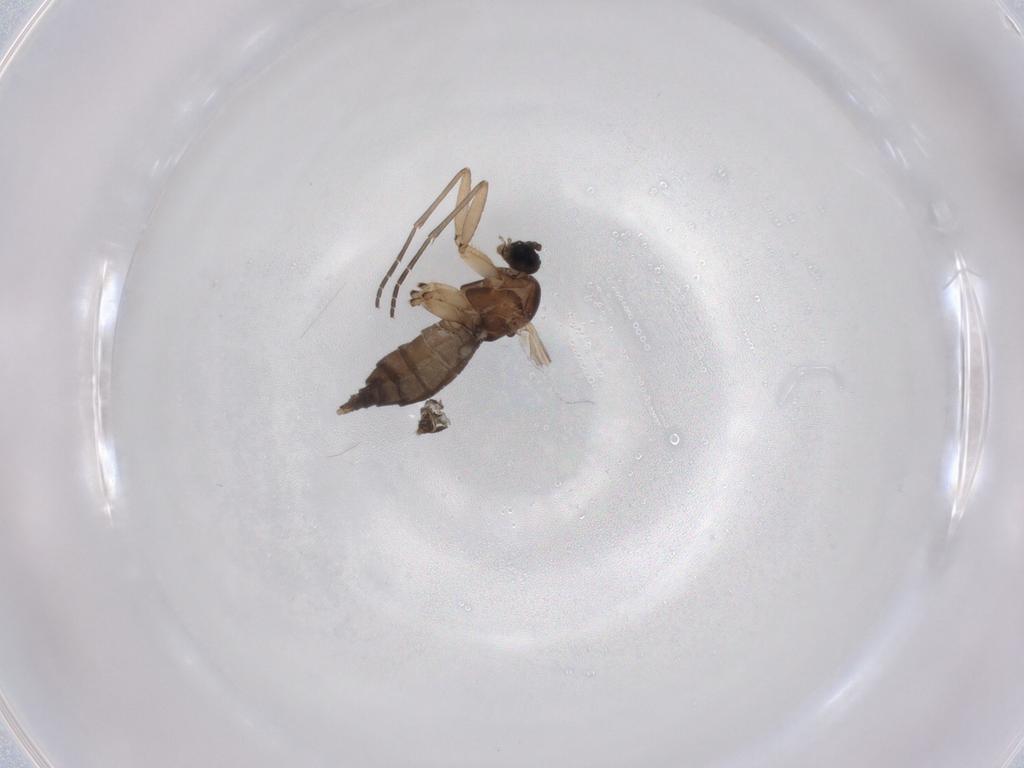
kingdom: Animalia
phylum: Arthropoda
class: Insecta
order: Diptera
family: Sciaridae
